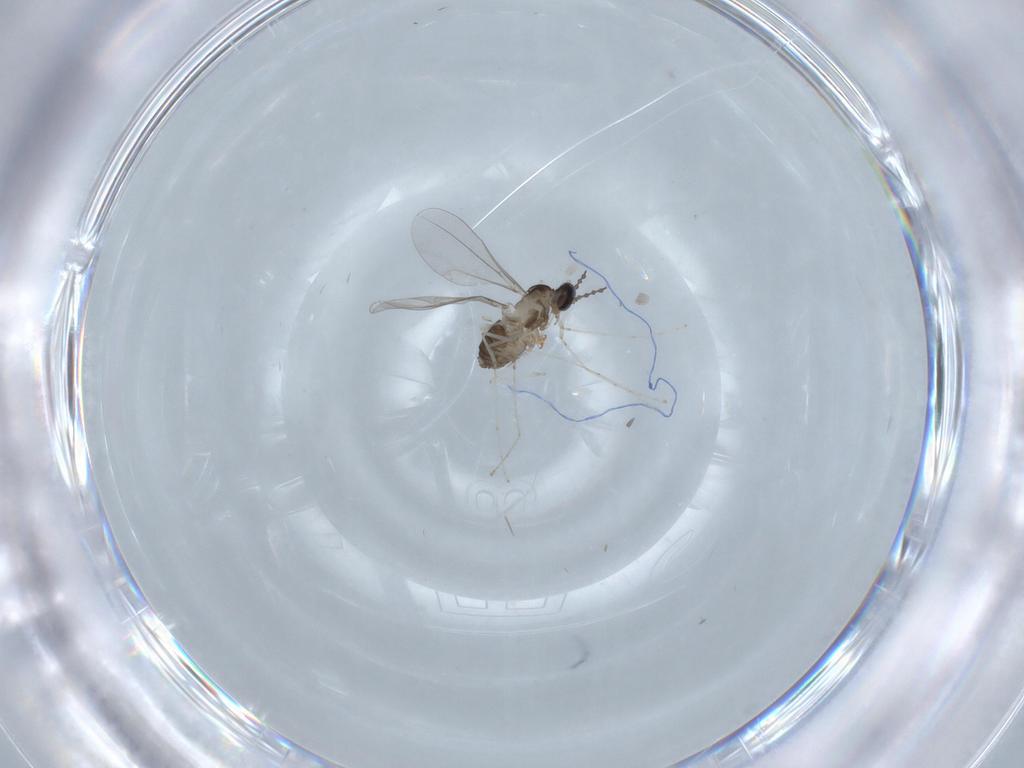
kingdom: Animalia
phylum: Arthropoda
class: Insecta
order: Diptera
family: Cecidomyiidae
